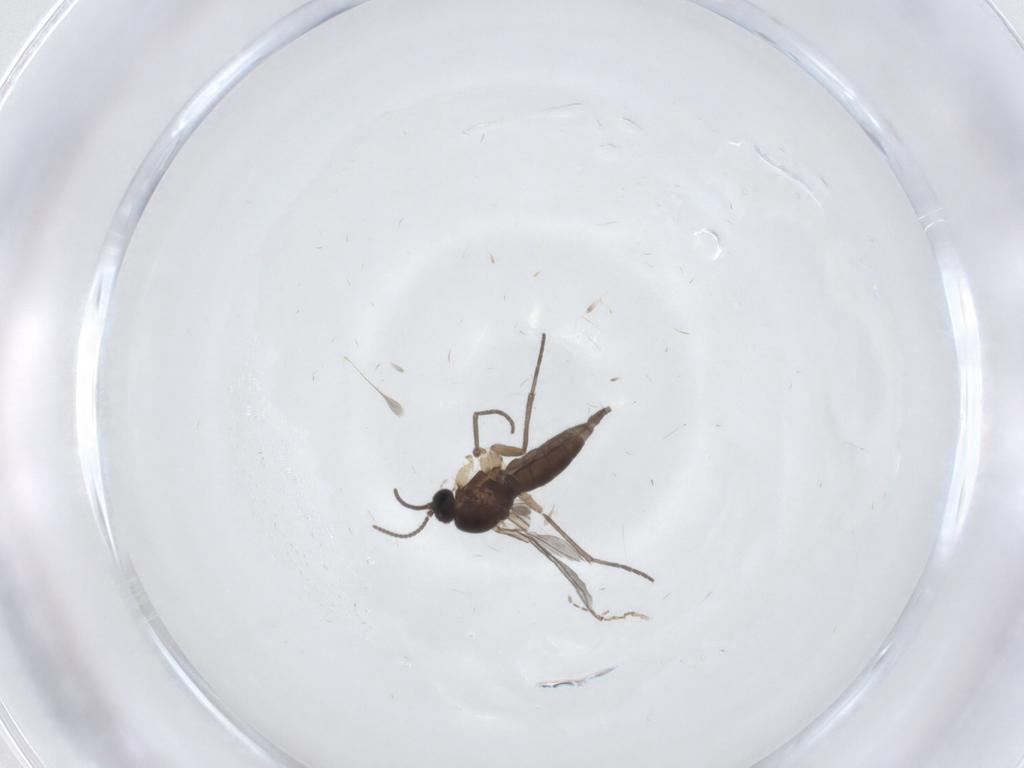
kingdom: Animalia
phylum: Arthropoda
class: Insecta
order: Diptera
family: Sciaridae
